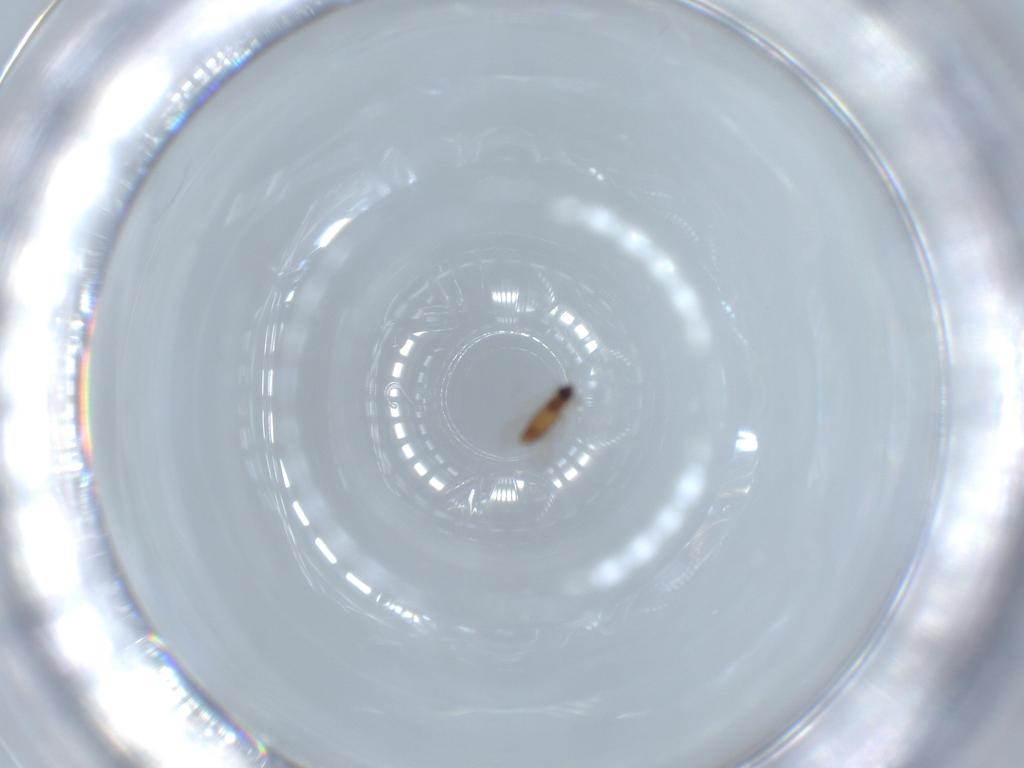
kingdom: Animalia
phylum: Arthropoda
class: Insecta
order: Diptera
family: Chironomidae
